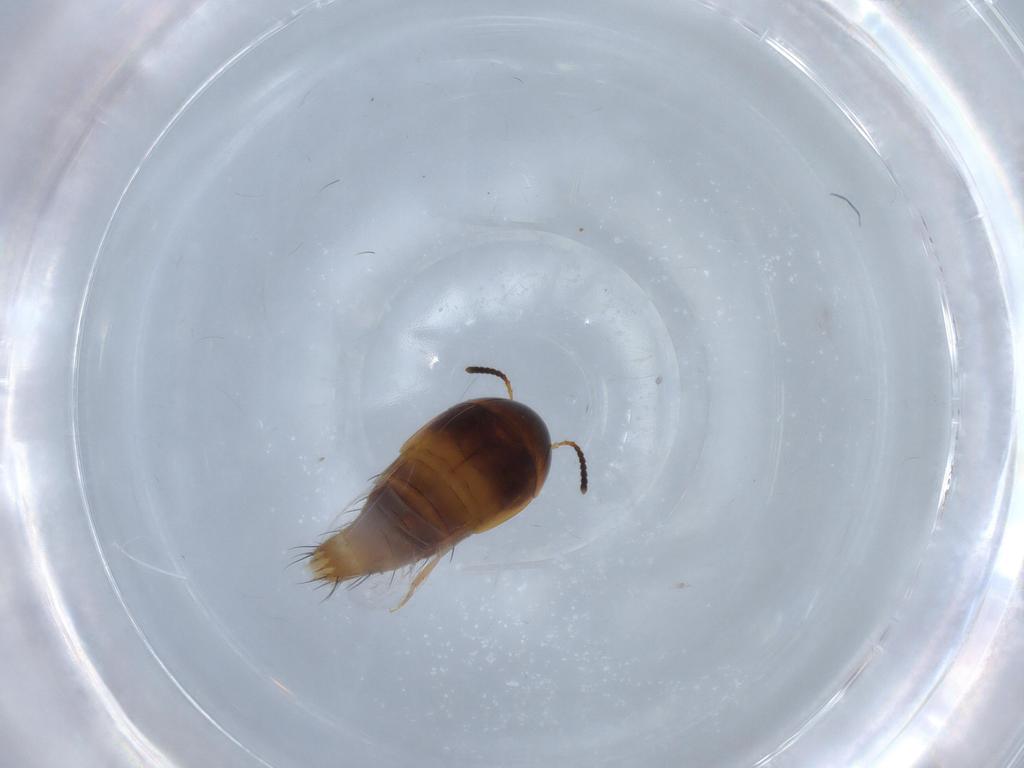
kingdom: Animalia
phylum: Arthropoda
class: Insecta
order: Coleoptera
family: Staphylinidae
